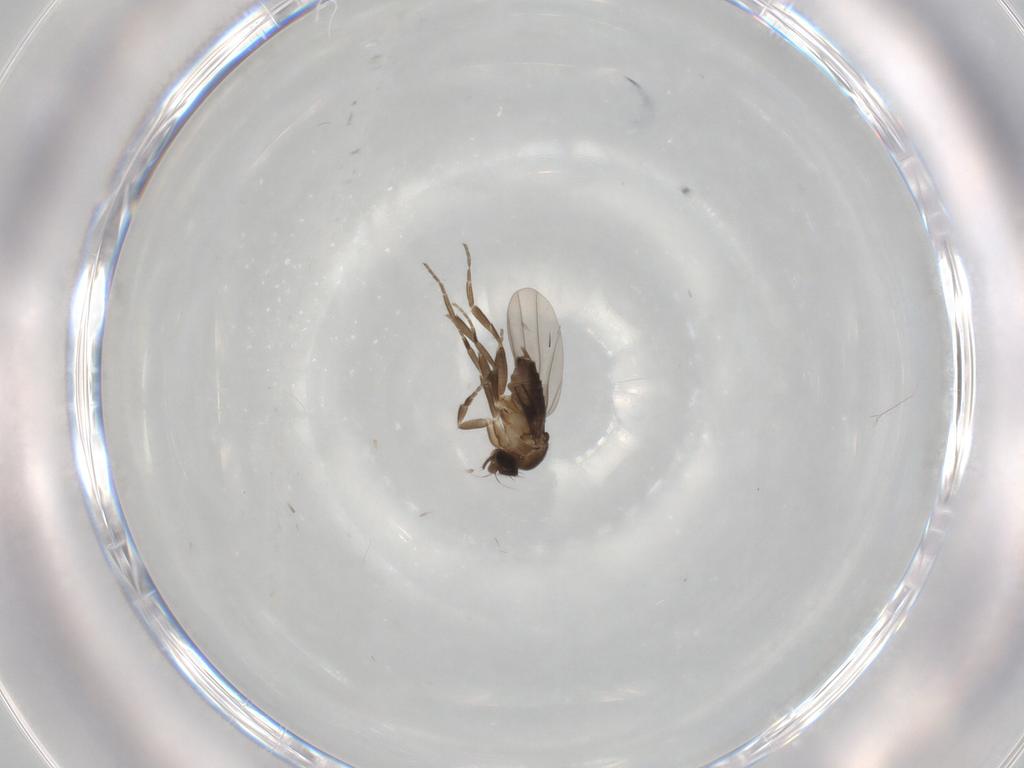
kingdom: Animalia
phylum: Arthropoda
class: Insecta
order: Diptera
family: Phoridae
